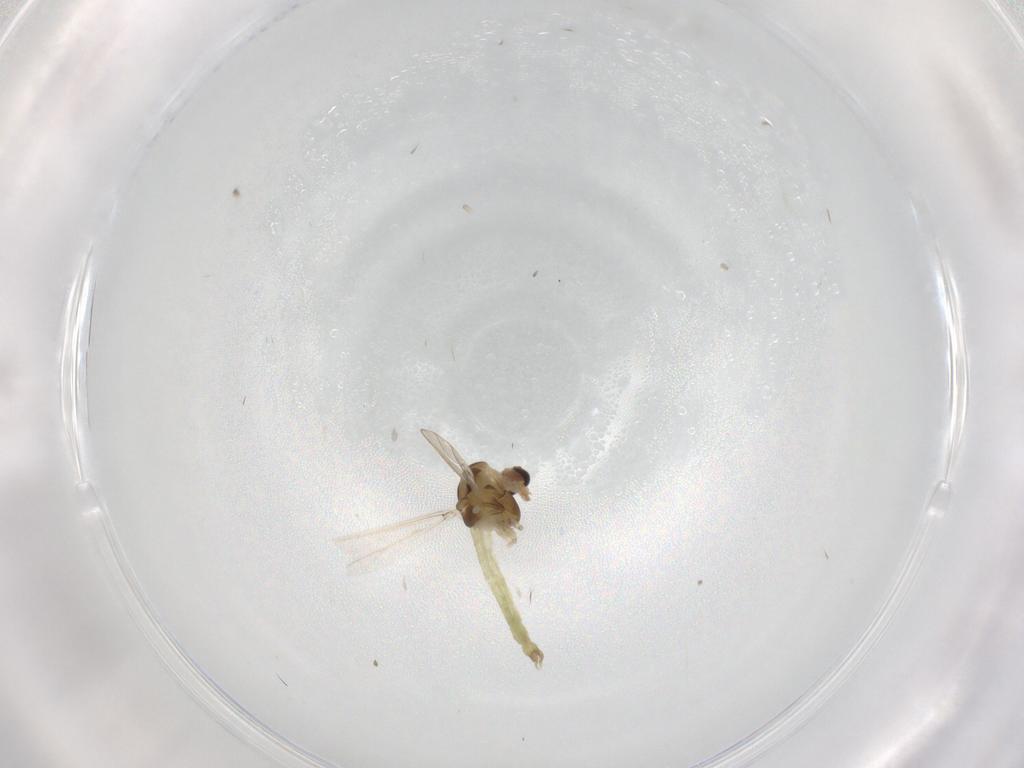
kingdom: Animalia
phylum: Arthropoda
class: Insecta
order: Diptera
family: Chironomidae
